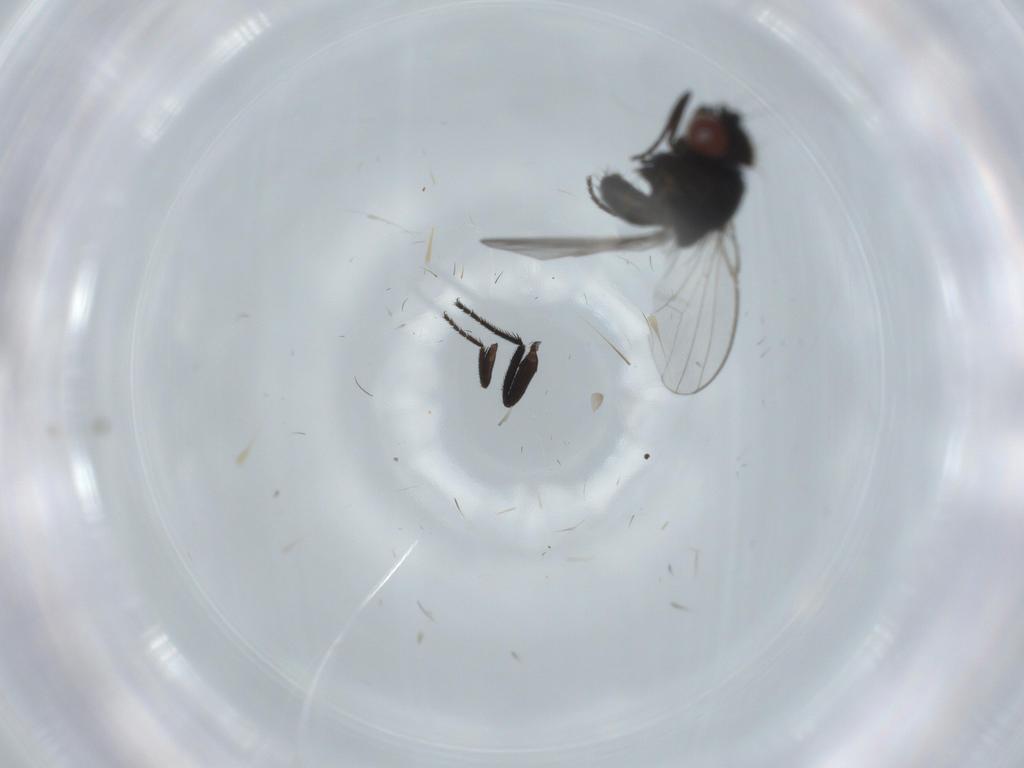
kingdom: Animalia
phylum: Arthropoda
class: Insecta
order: Diptera
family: Milichiidae
